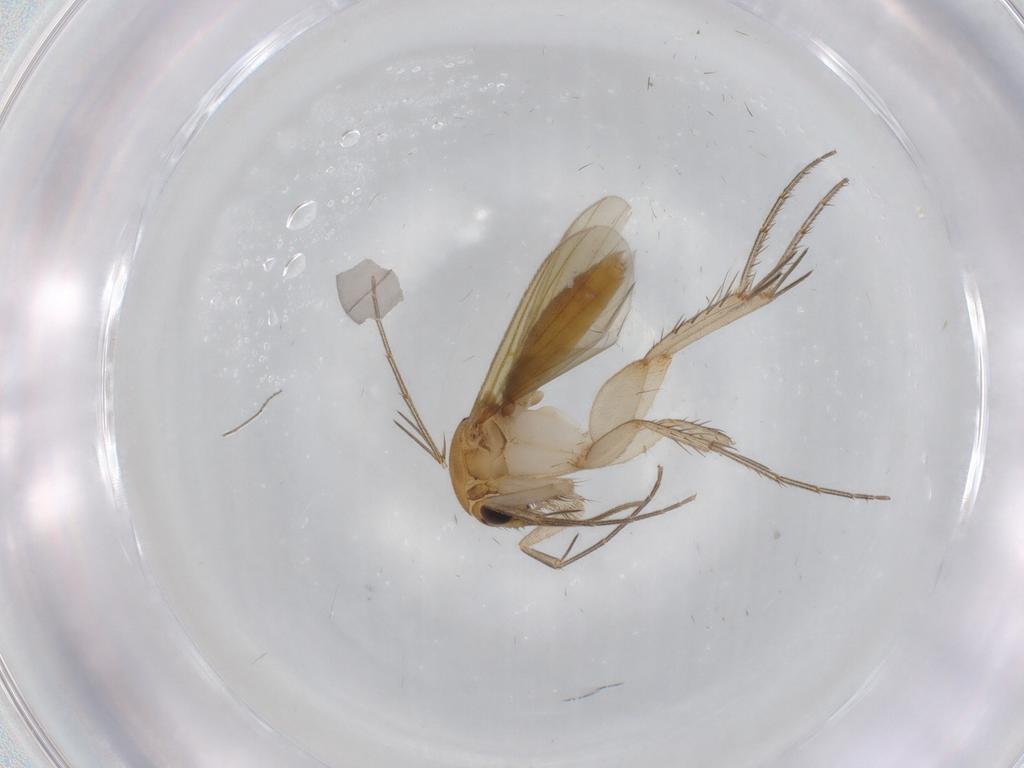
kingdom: Animalia
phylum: Arthropoda
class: Insecta
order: Diptera
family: Mycetophilidae
